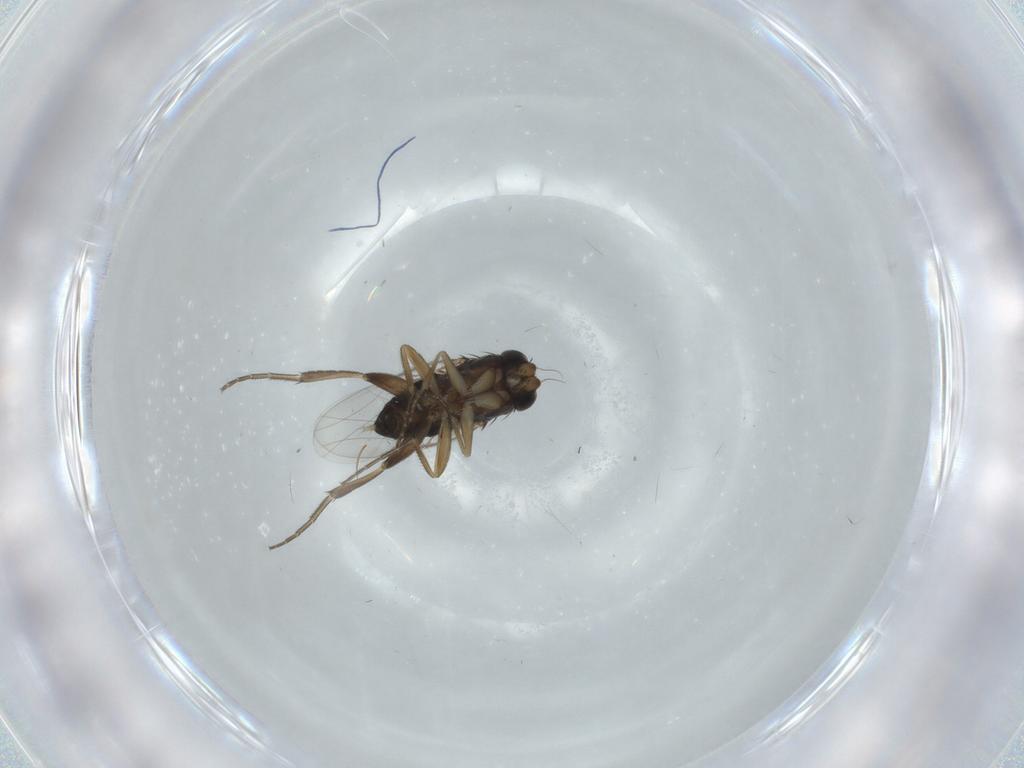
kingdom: Animalia
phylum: Arthropoda
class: Insecta
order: Diptera
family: Phoridae
